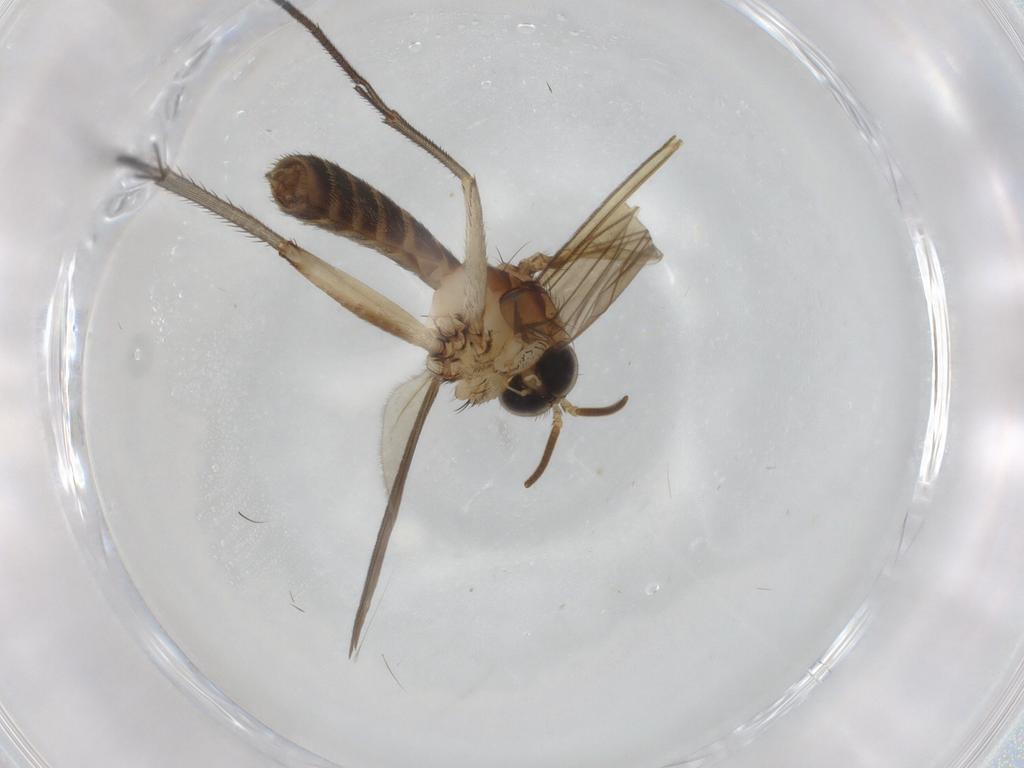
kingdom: Animalia
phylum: Arthropoda
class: Insecta
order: Diptera
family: Mycetophilidae
